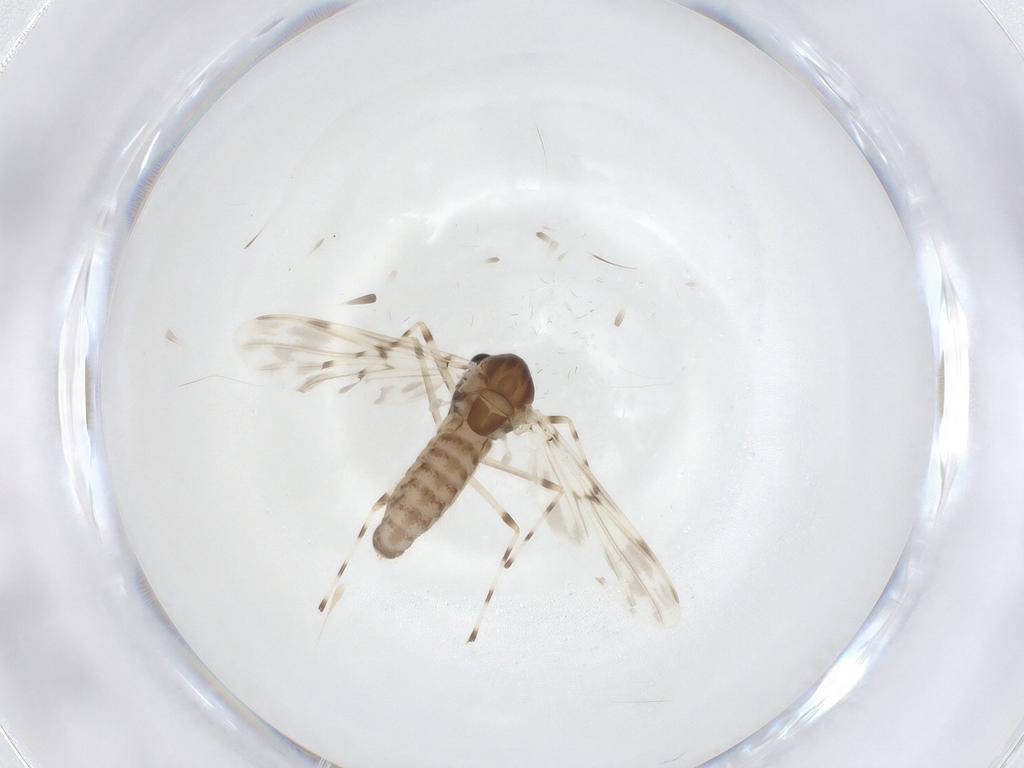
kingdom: Animalia
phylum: Arthropoda
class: Insecta
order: Diptera
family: Chironomidae
